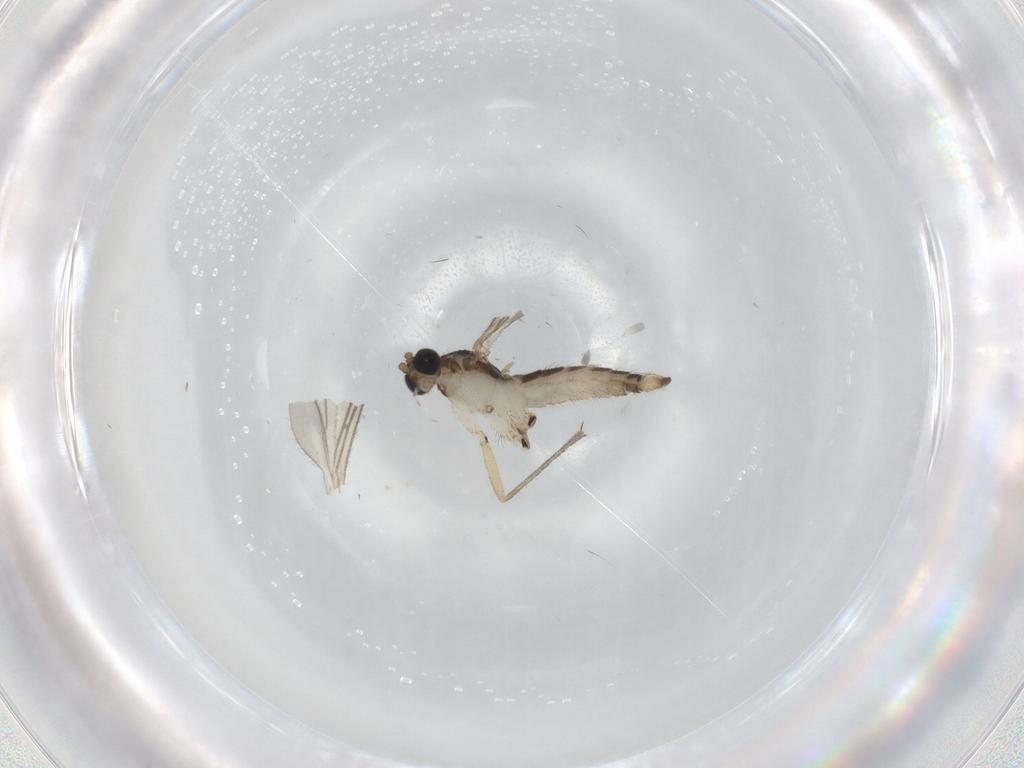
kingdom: Animalia
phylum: Arthropoda
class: Insecta
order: Diptera
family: Sciaridae
